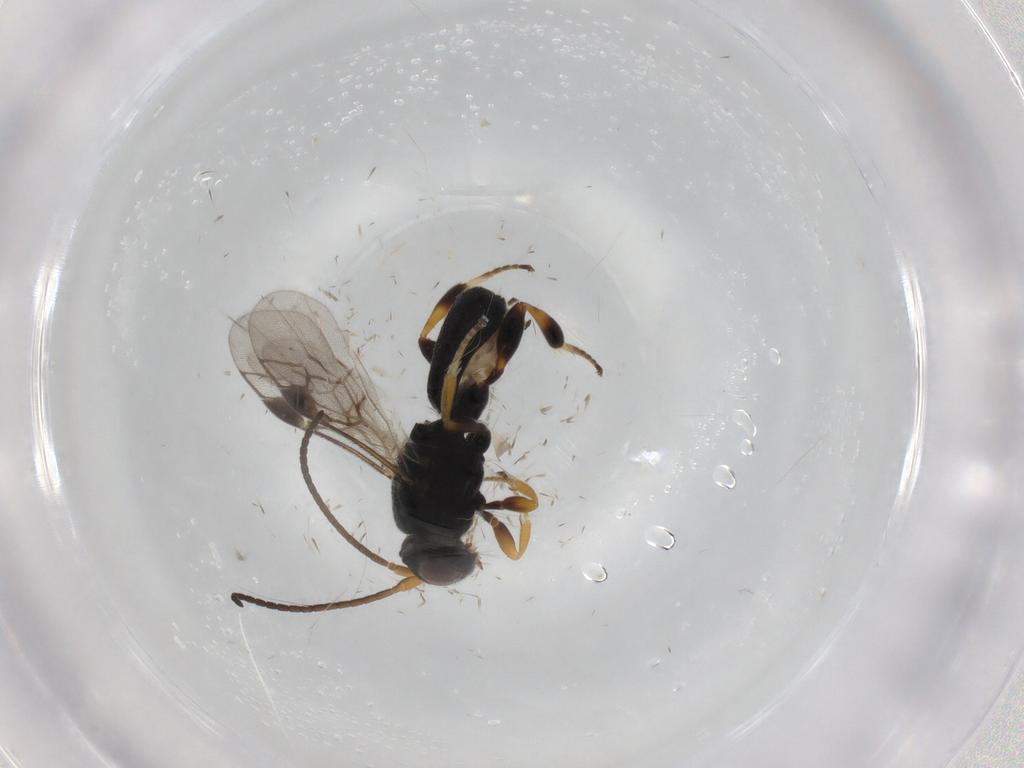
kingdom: Animalia
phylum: Arthropoda
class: Insecta
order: Hymenoptera
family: Braconidae
